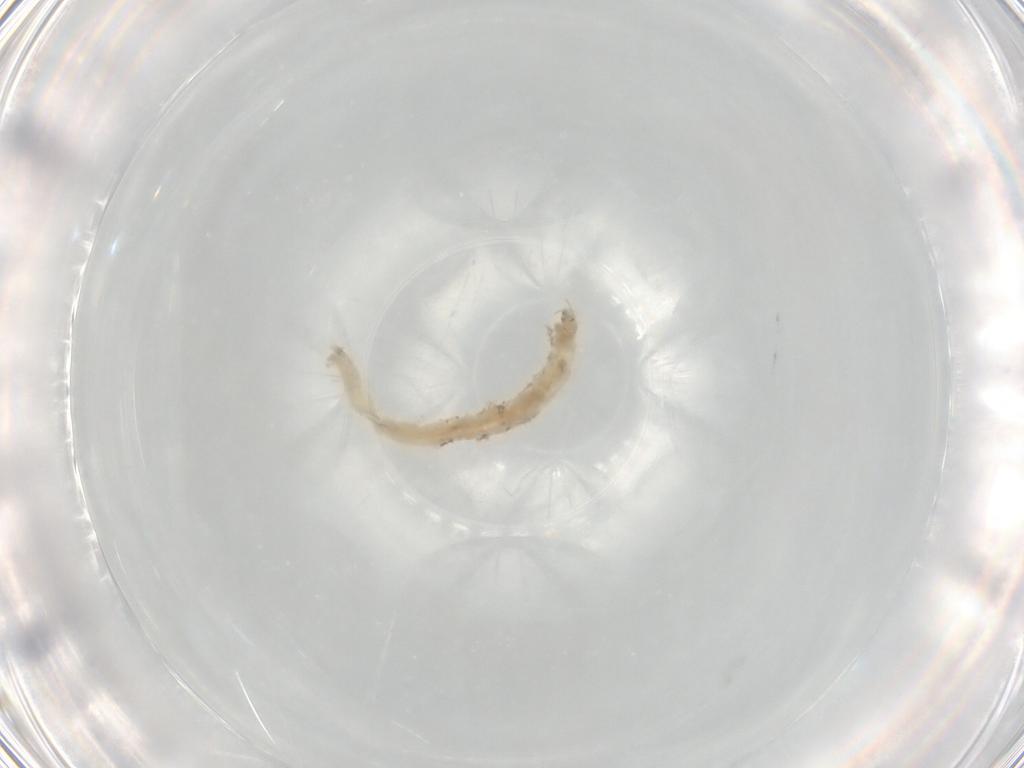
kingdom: Animalia
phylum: Arthropoda
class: Insecta
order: Diptera
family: Chironomidae
